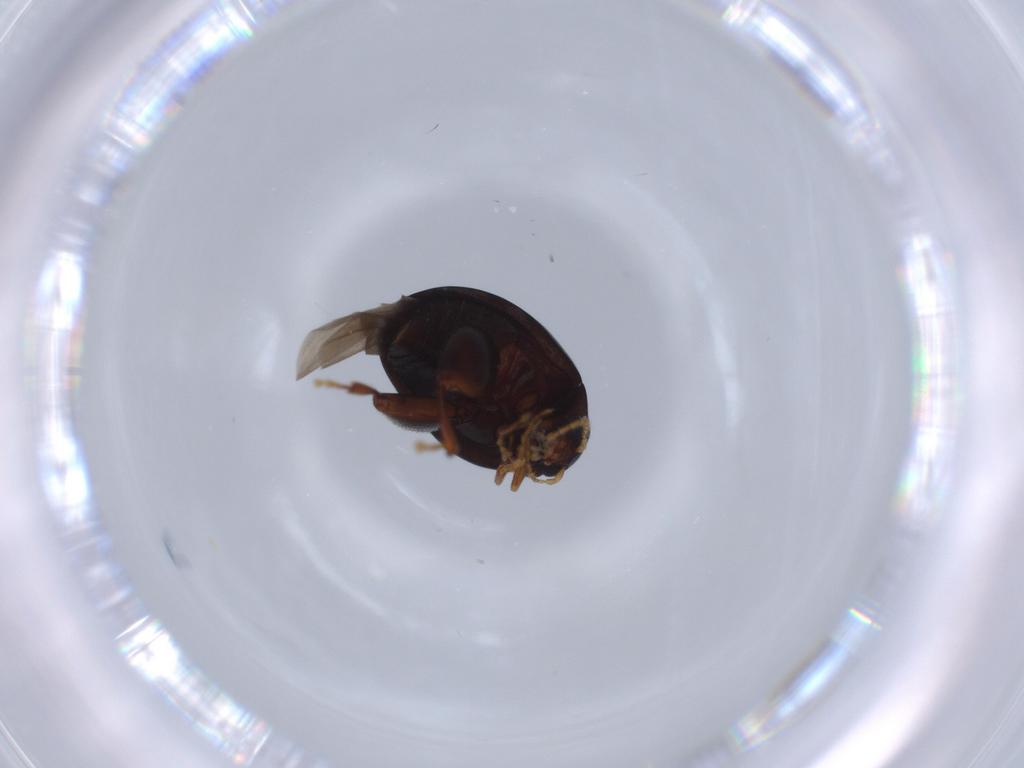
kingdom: Animalia
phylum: Arthropoda
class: Insecta
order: Coleoptera
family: Chrysomelidae
